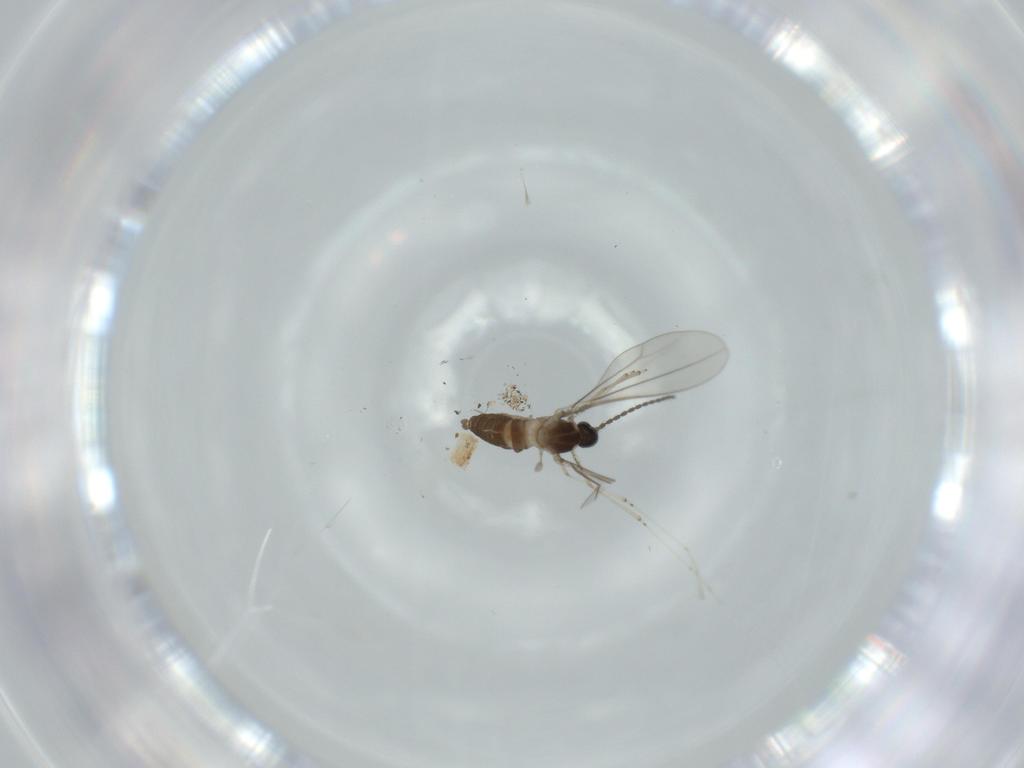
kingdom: Animalia
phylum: Arthropoda
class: Insecta
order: Diptera
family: Cecidomyiidae
